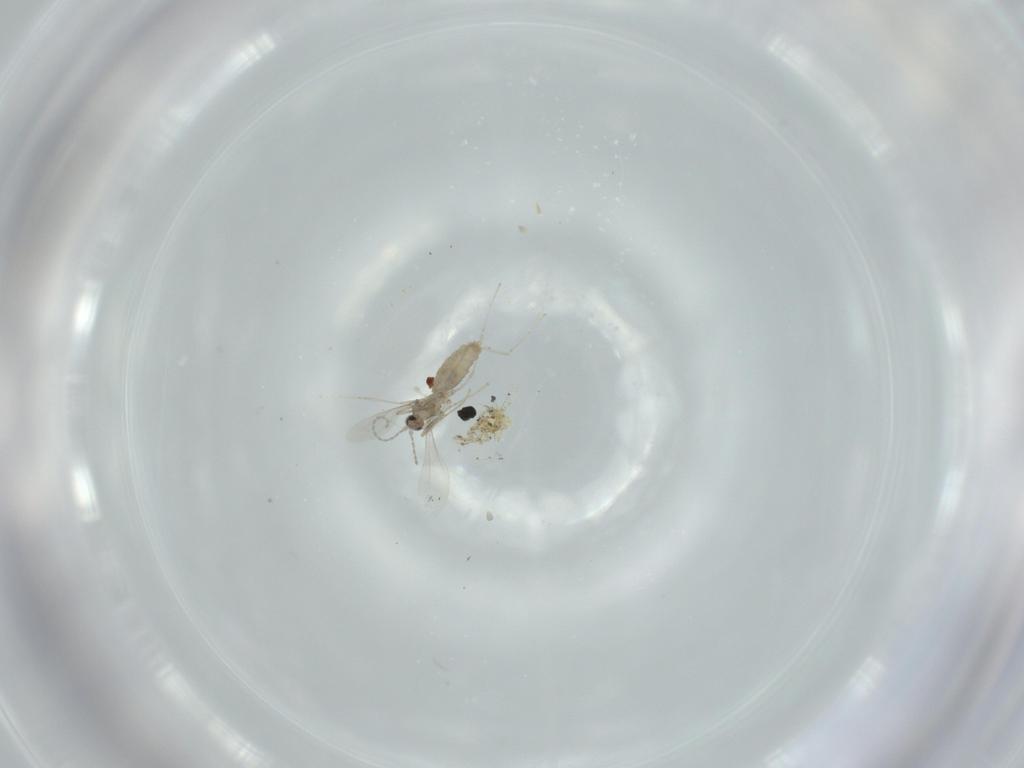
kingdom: Animalia
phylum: Arthropoda
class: Insecta
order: Diptera
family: Cecidomyiidae
